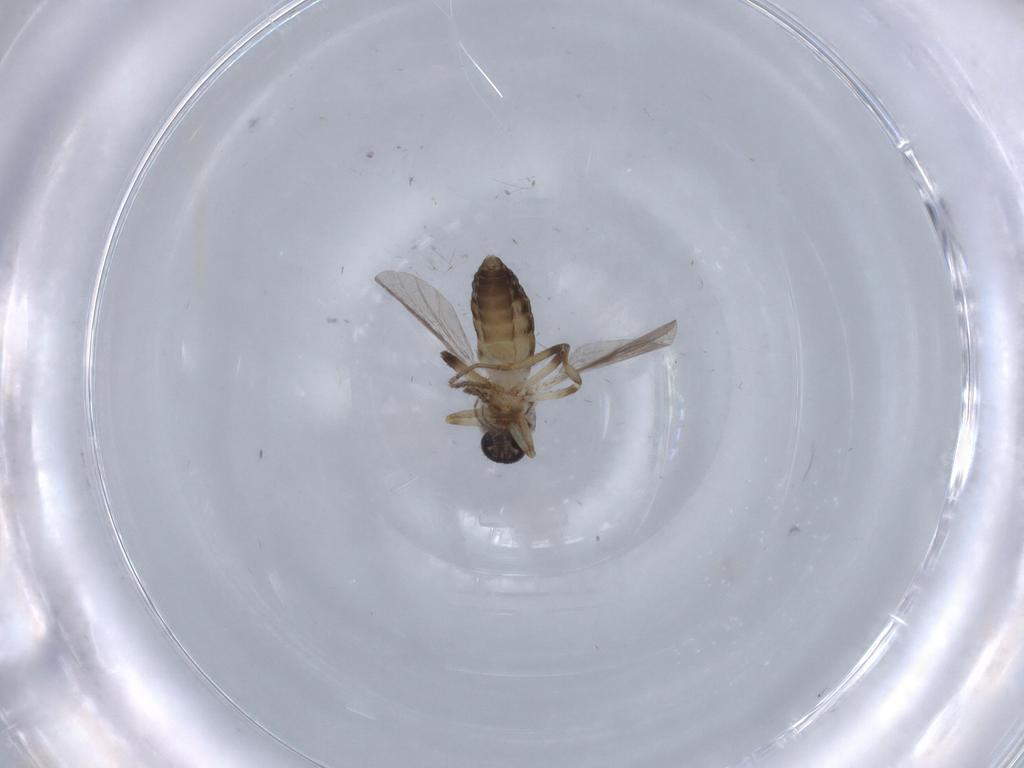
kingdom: Animalia
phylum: Arthropoda
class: Insecta
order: Diptera
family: Ceratopogonidae
